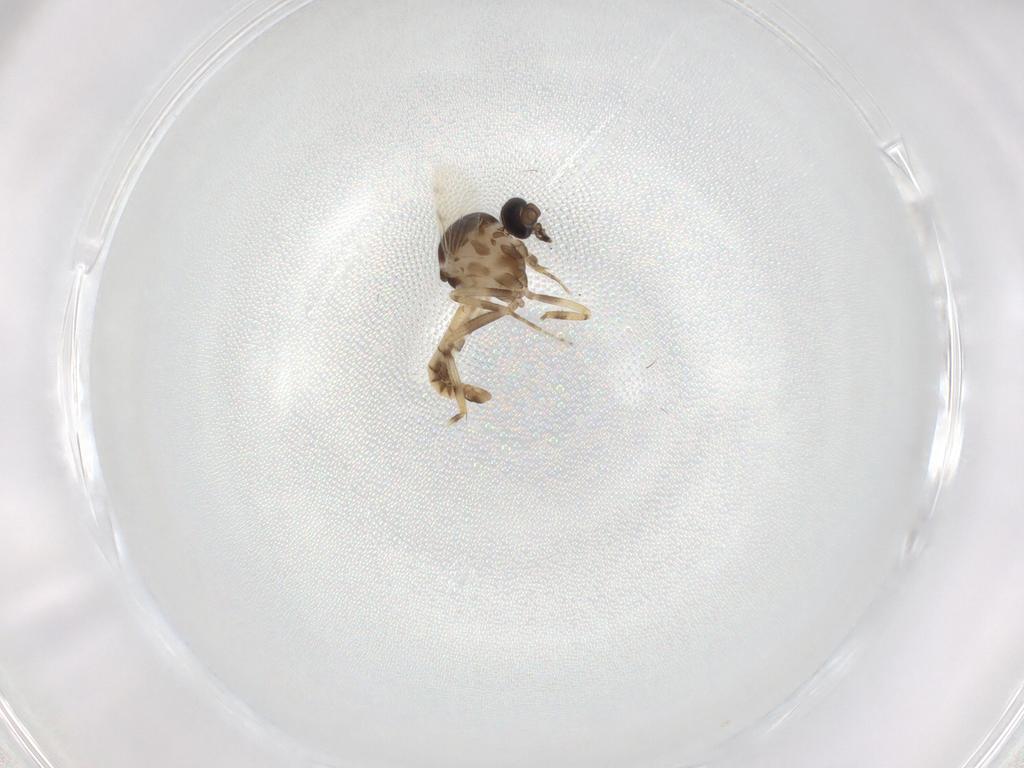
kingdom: Animalia
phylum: Arthropoda
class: Insecta
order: Diptera
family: Ceratopogonidae
